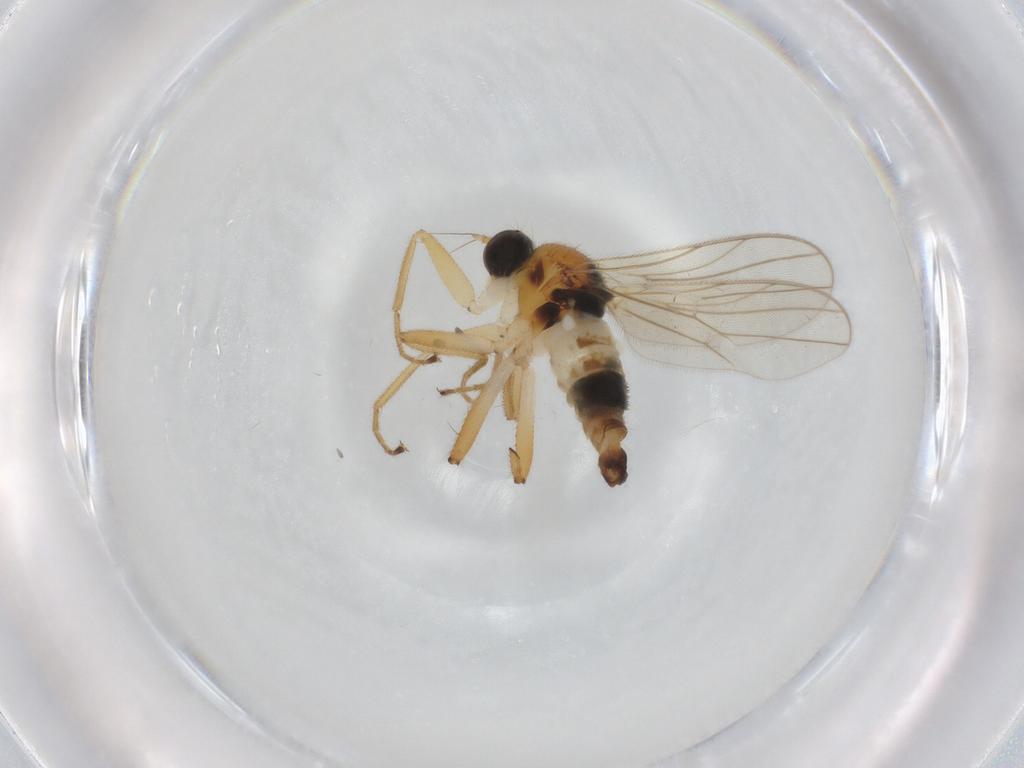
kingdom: Animalia
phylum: Arthropoda
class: Insecta
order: Diptera
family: Hybotidae
